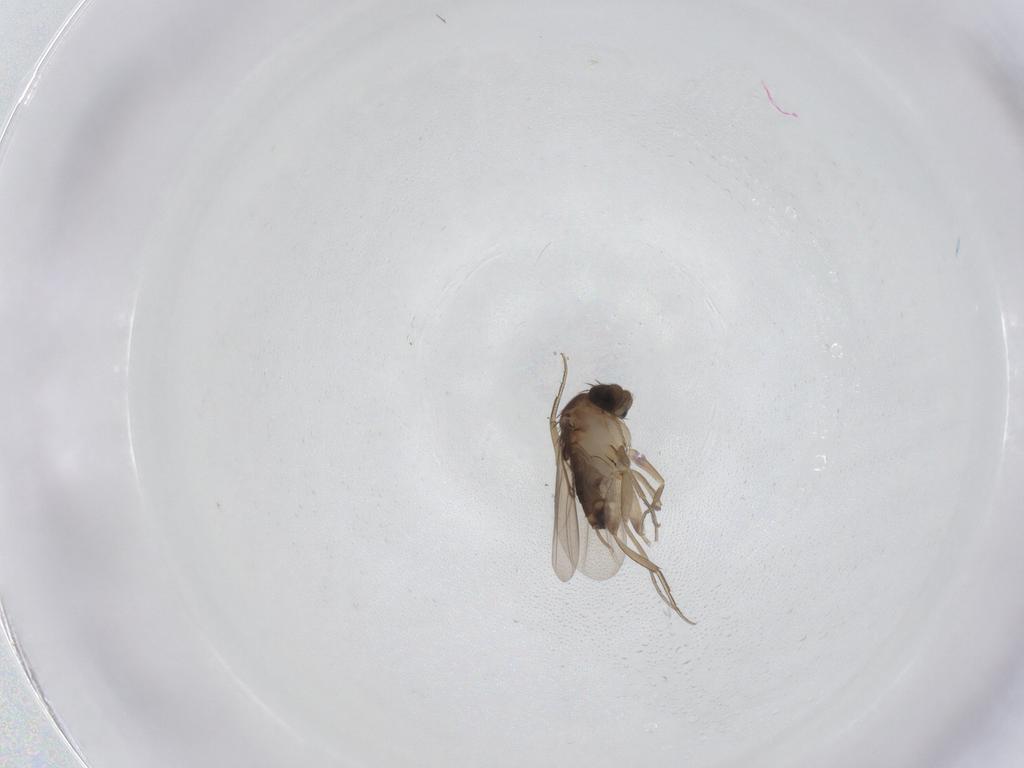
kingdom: Animalia
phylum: Arthropoda
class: Insecta
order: Diptera
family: Phoridae
